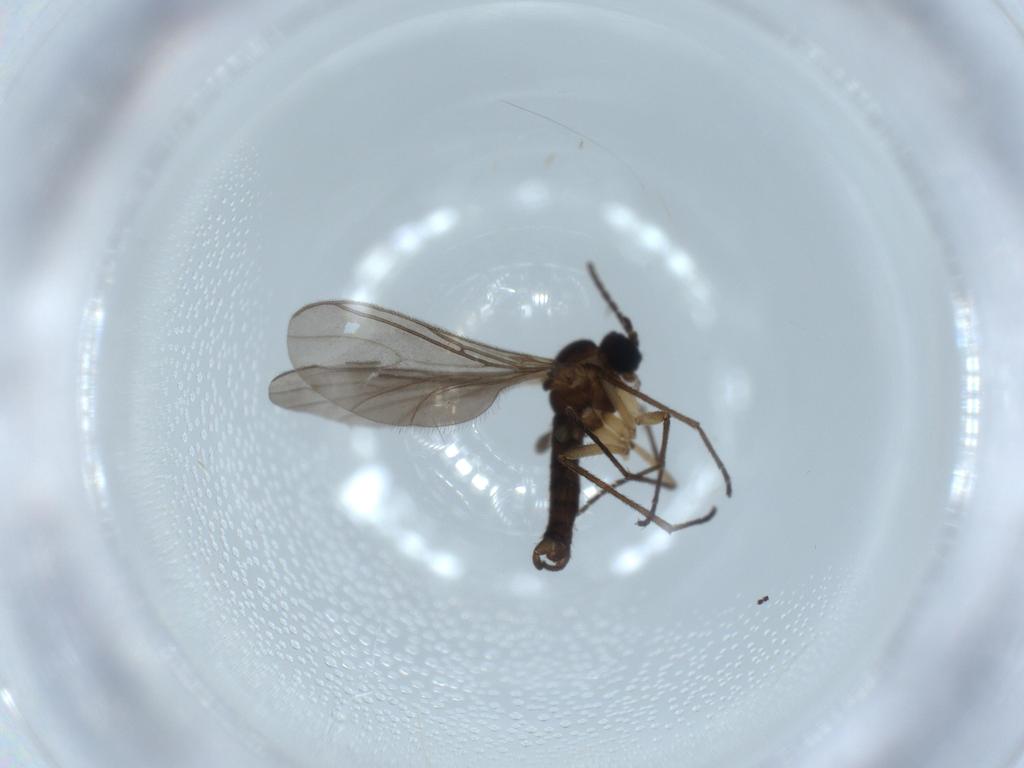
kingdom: Animalia
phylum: Arthropoda
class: Insecta
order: Diptera
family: Sciaridae
